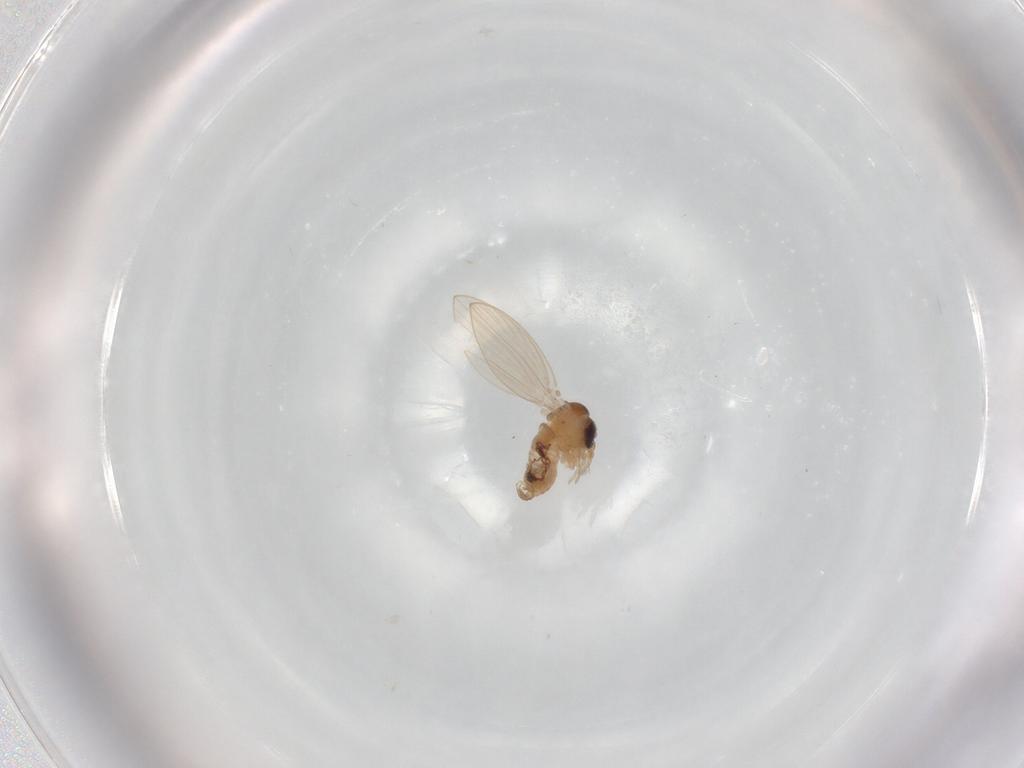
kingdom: Animalia
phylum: Arthropoda
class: Insecta
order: Diptera
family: Psychodidae
